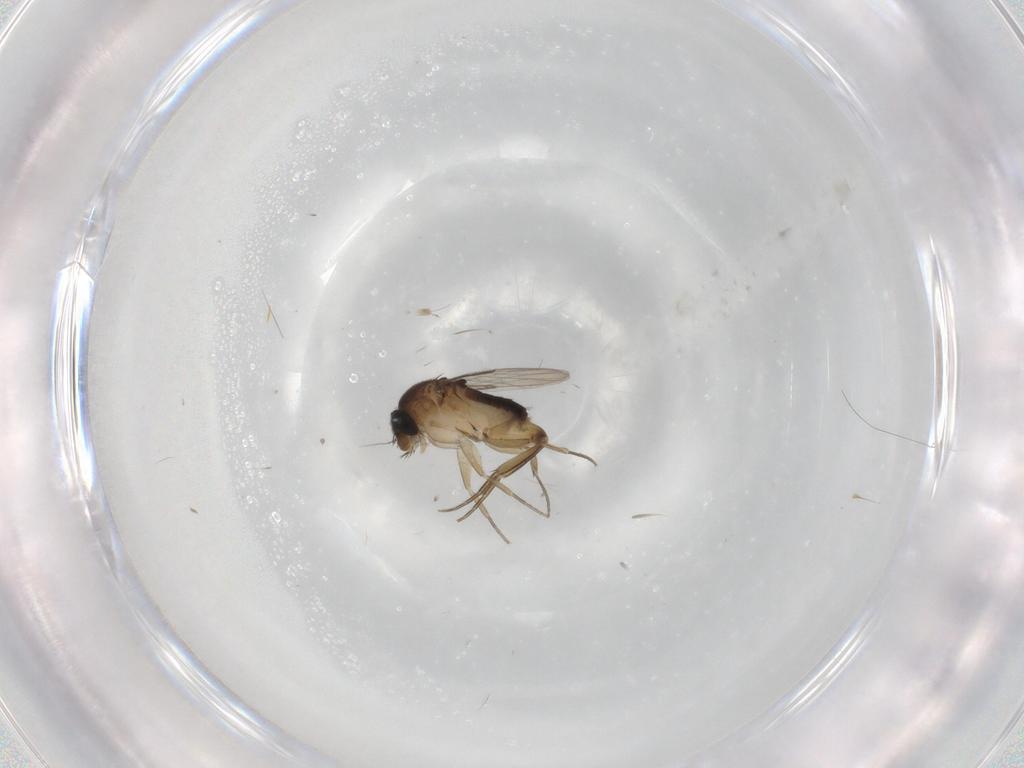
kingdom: Animalia
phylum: Arthropoda
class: Insecta
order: Diptera
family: Phoridae
